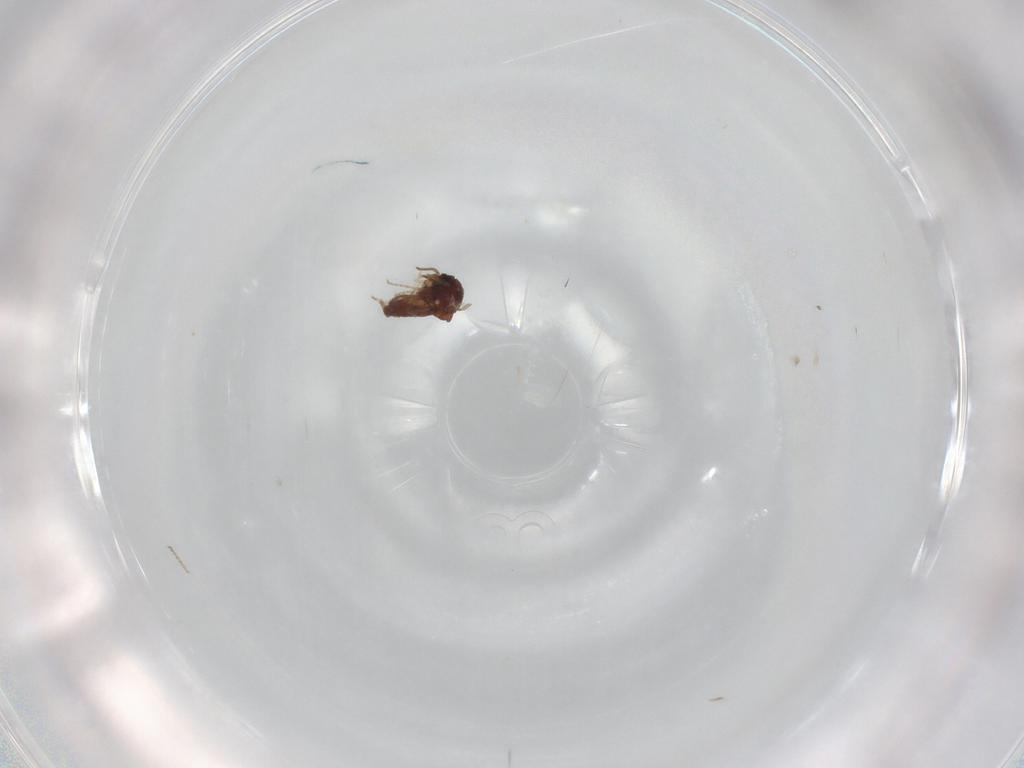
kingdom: Animalia
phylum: Arthropoda
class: Insecta
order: Diptera
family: Ceratopogonidae
